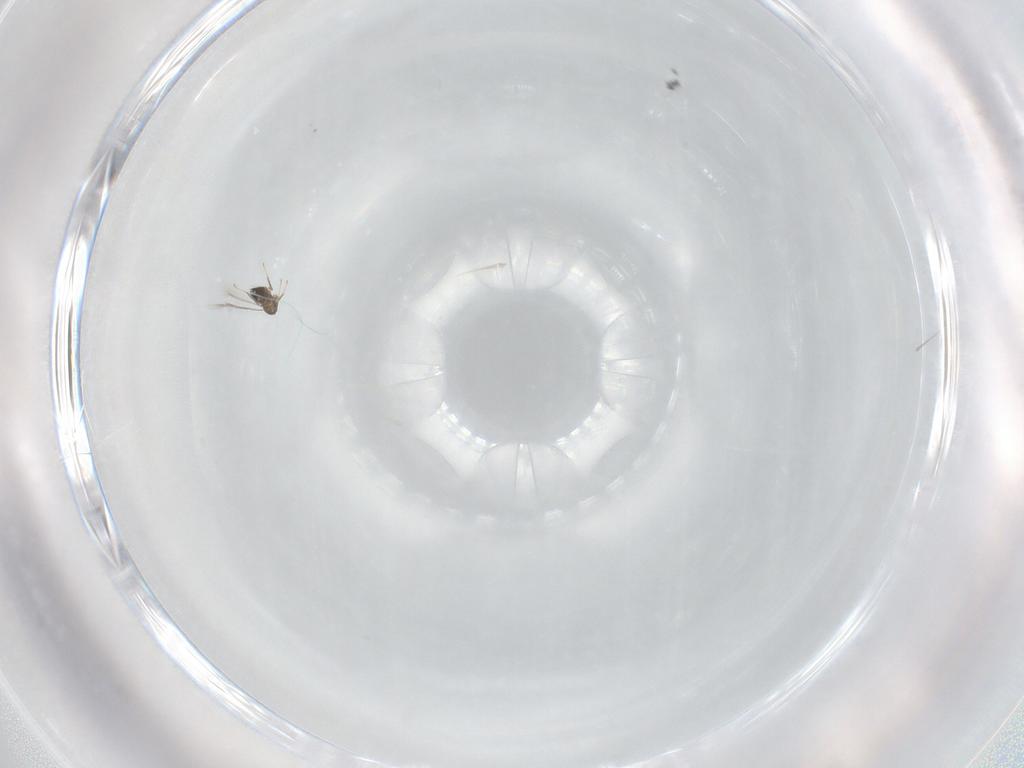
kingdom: Animalia
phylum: Arthropoda
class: Insecta
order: Hymenoptera
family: Mymaridae
